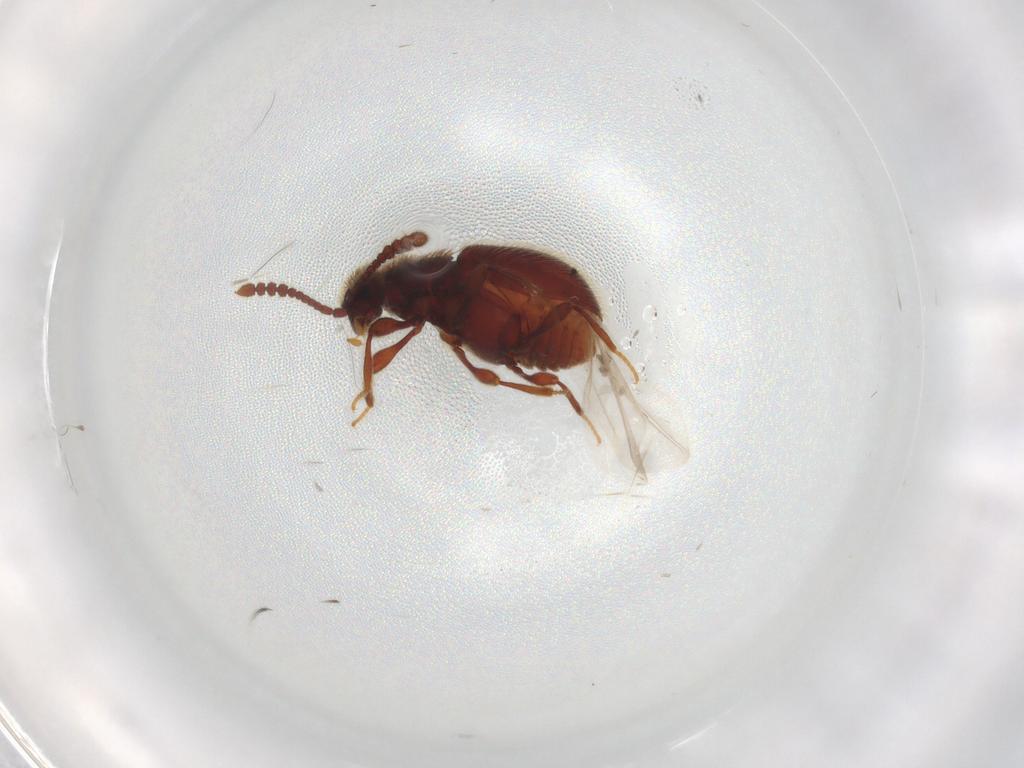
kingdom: Animalia
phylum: Arthropoda
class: Insecta
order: Coleoptera
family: Staphylinidae
